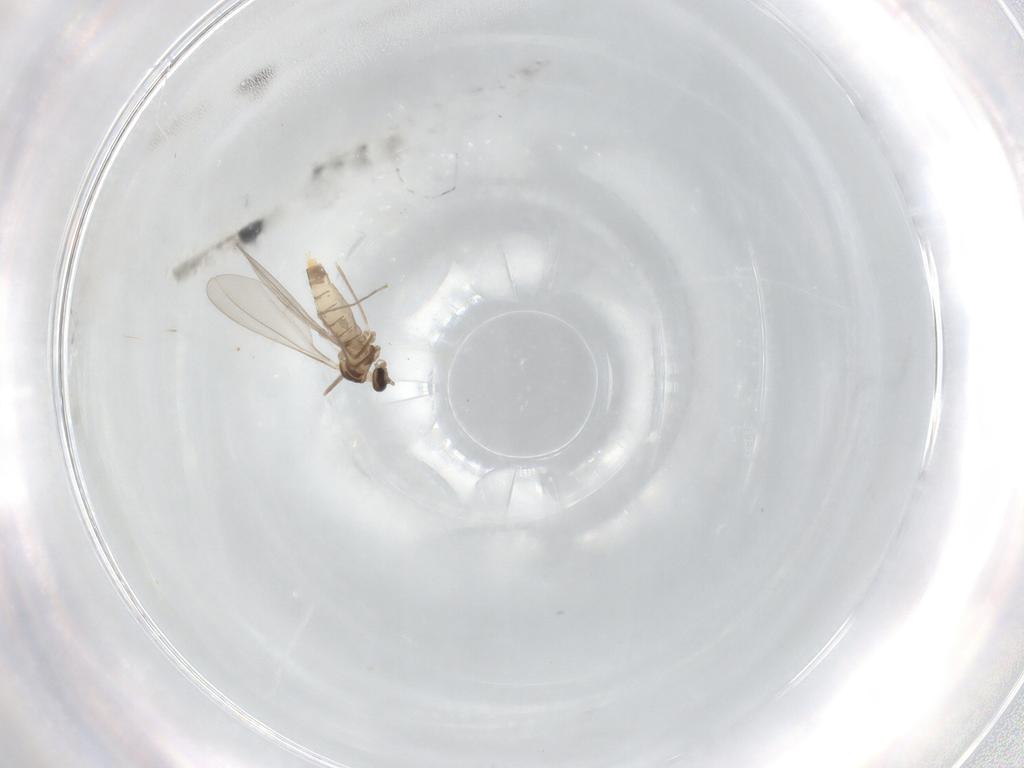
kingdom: Animalia
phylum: Arthropoda
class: Insecta
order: Diptera
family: Cecidomyiidae
